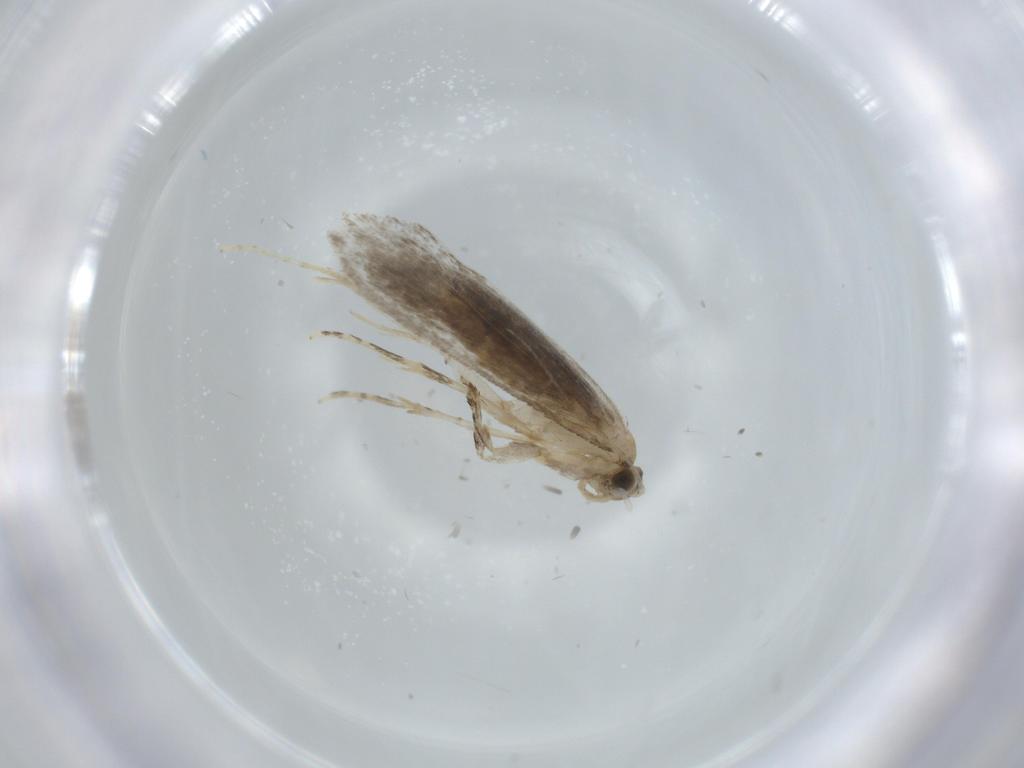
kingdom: Animalia
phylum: Arthropoda
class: Insecta
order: Lepidoptera
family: Tineidae
